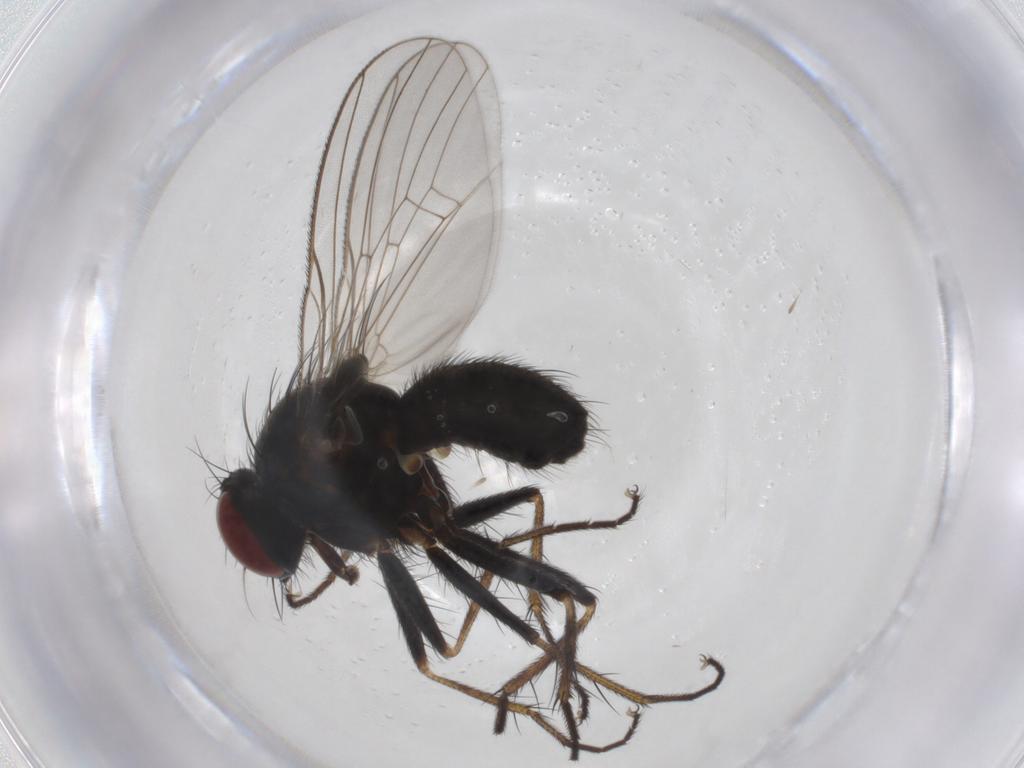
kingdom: Animalia
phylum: Arthropoda
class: Insecta
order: Diptera
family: Muscidae
